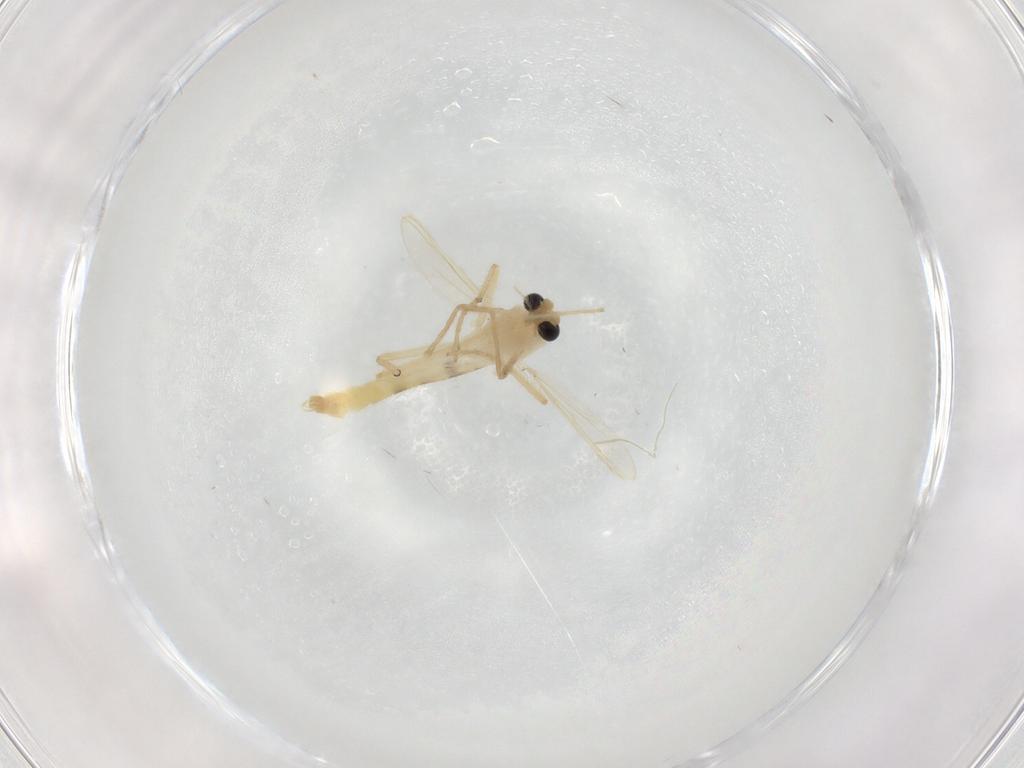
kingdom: Animalia
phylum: Arthropoda
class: Insecta
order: Diptera
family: Chironomidae
